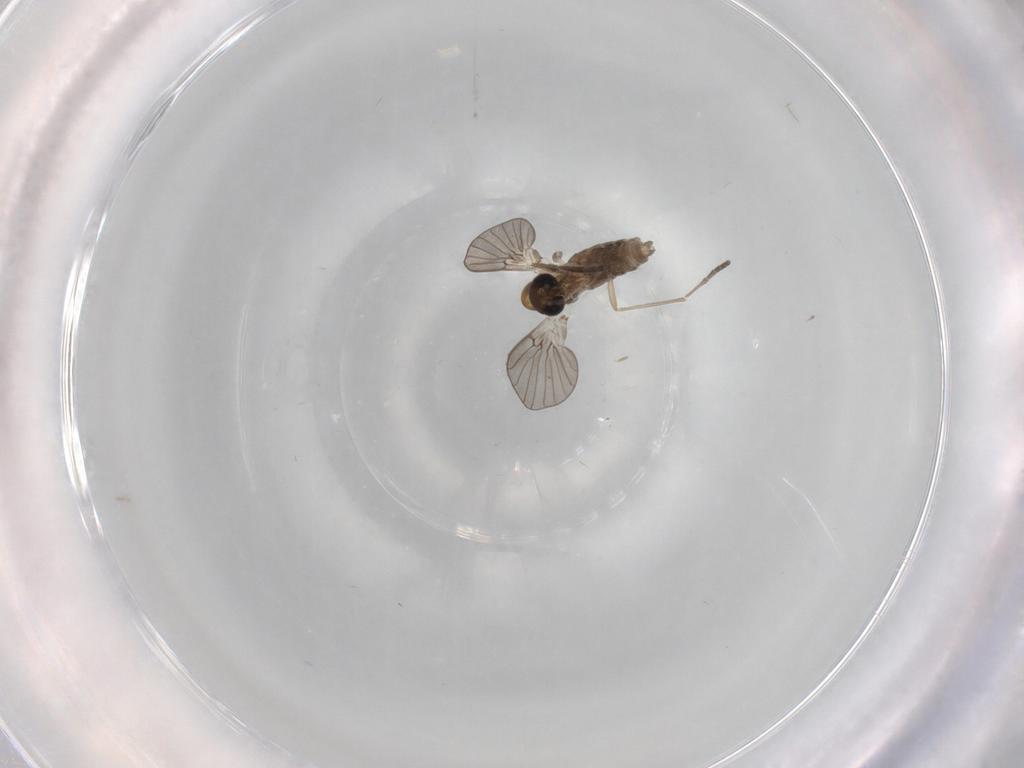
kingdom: Animalia
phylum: Arthropoda
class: Insecta
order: Diptera
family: Psychodidae
